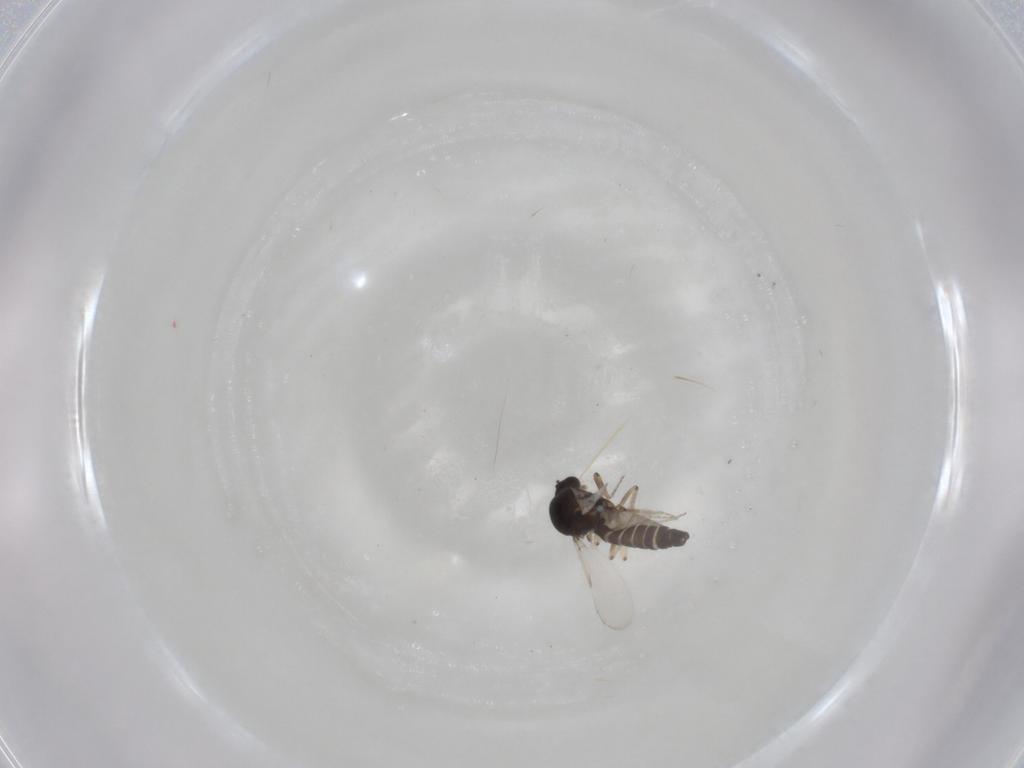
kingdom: Animalia
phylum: Arthropoda
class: Insecta
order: Diptera
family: Ceratopogonidae
